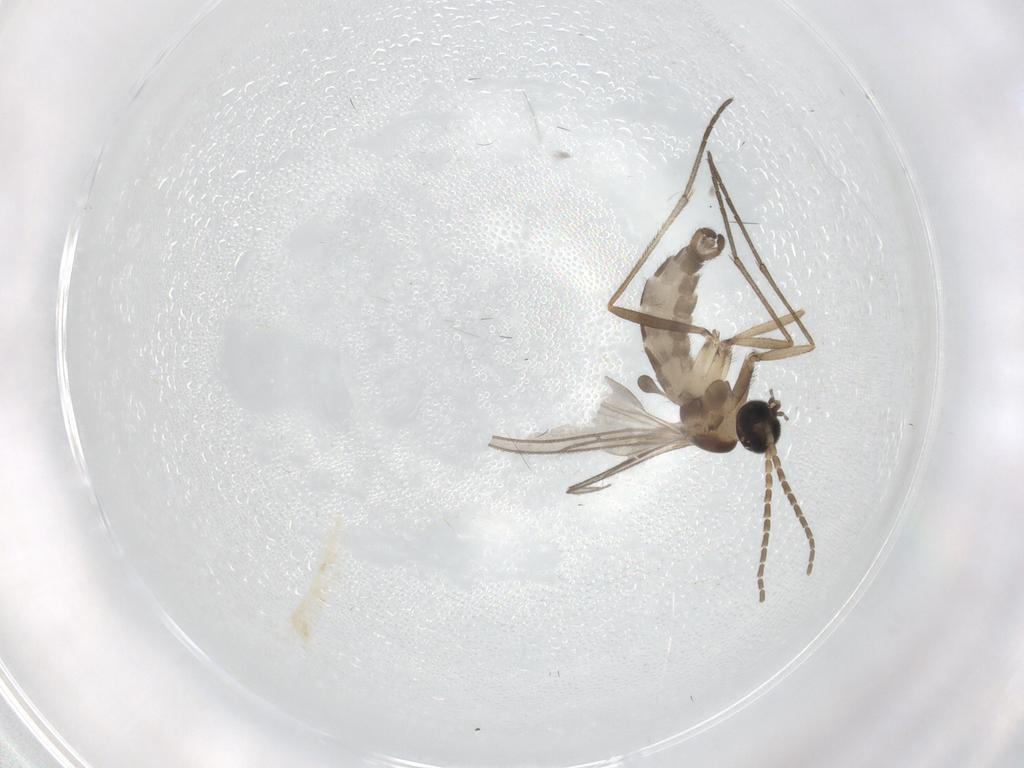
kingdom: Animalia
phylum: Arthropoda
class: Insecta
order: Diptera
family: Sciaridae
